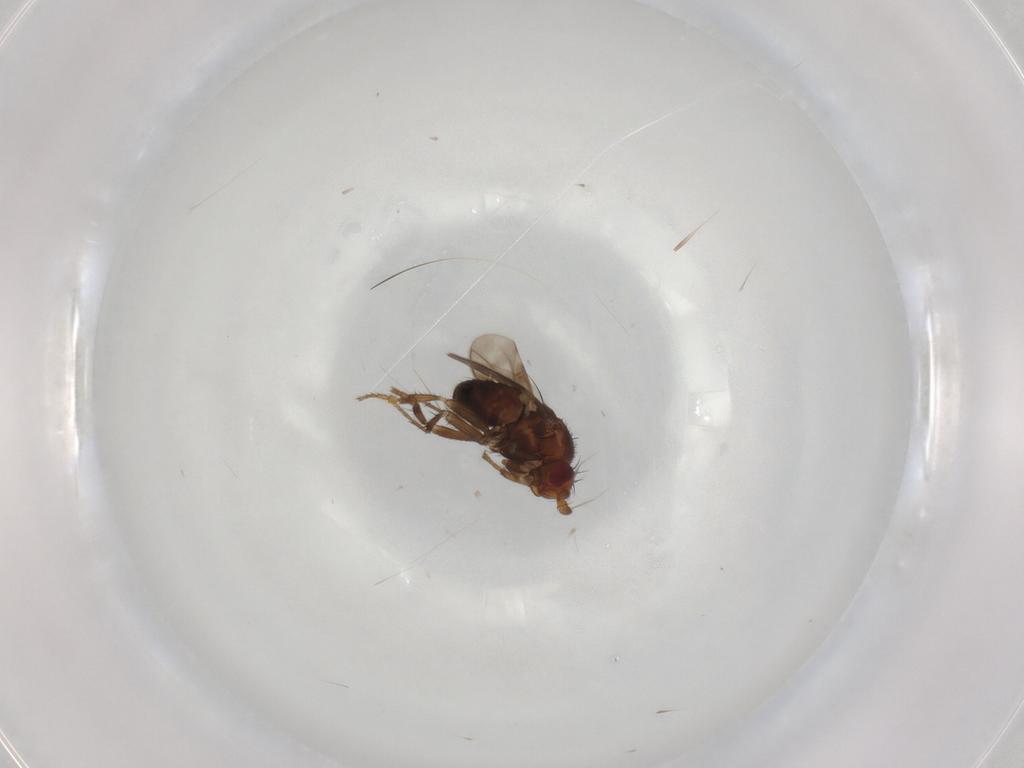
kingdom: Animalia
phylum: Arthropoda
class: Insecta
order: Diptera
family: Sphaeroceridae
